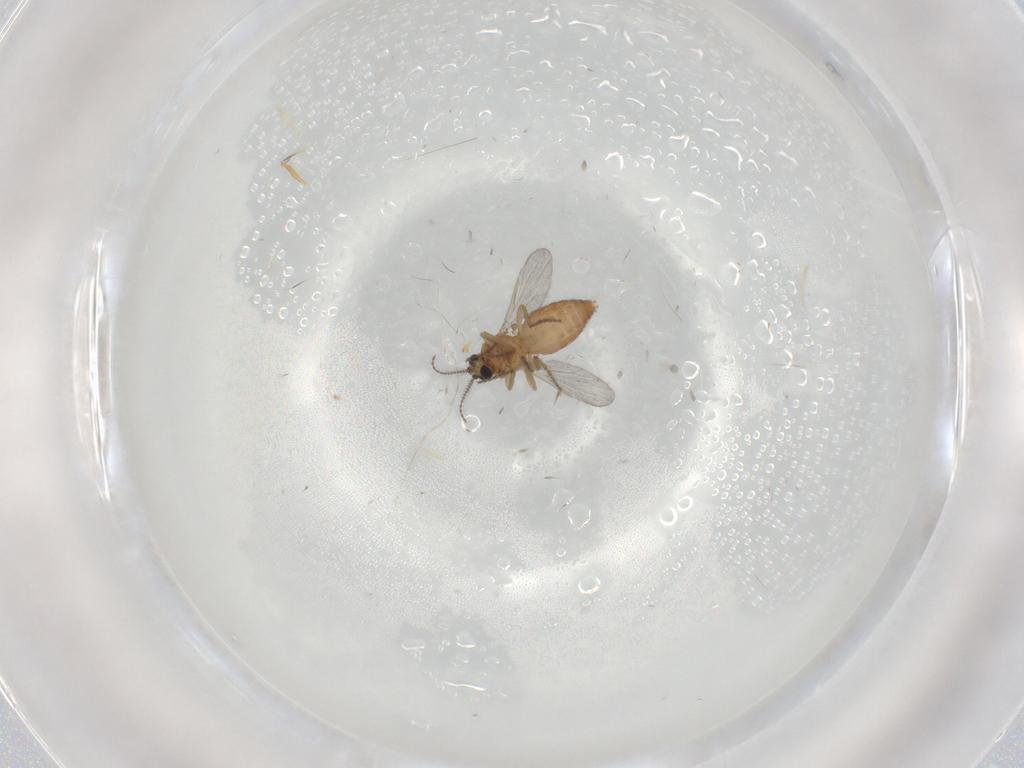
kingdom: Animalia
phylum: Arthropoda
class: Insecta
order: Diptera
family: Ceratopogonidae
